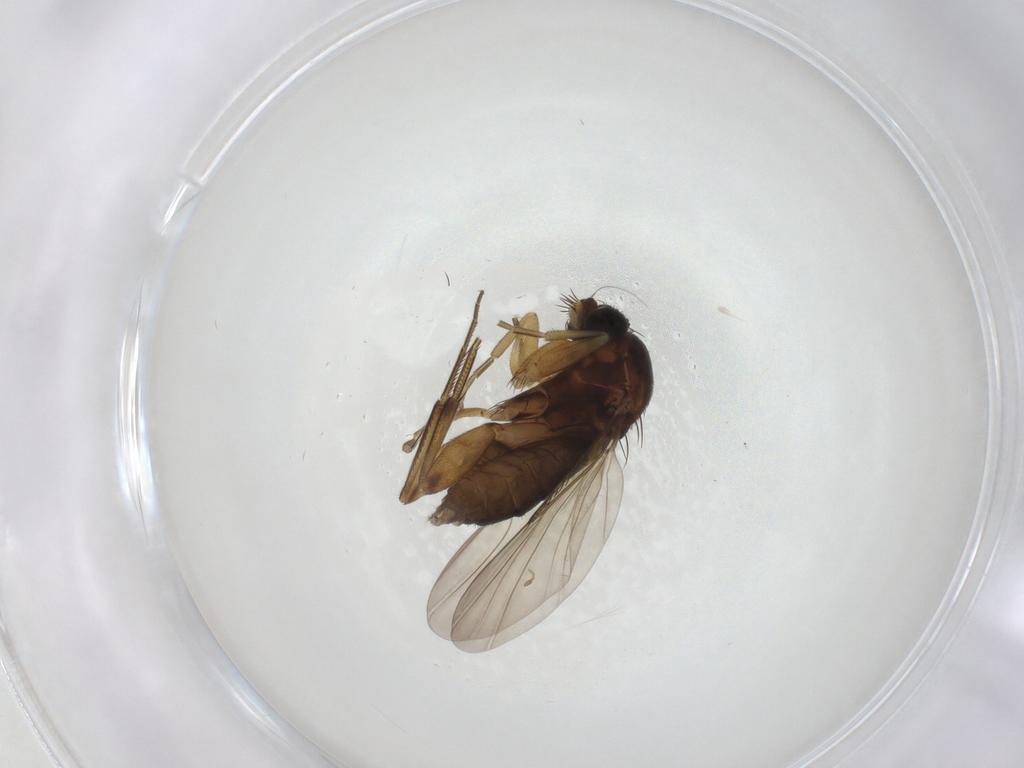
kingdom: Animalia
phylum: Arthropoda
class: Insecta
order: Diptera
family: Phoridae
